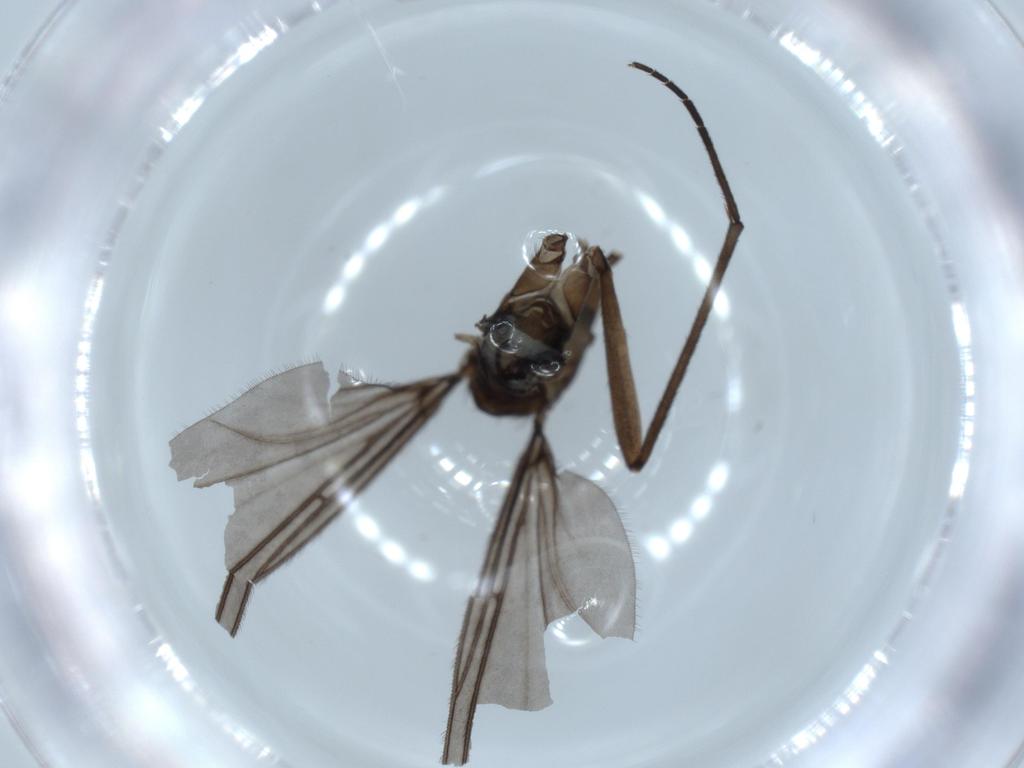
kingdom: Animalia
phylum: Arthropoda
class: Insecta
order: Diptera
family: Sciaridae
